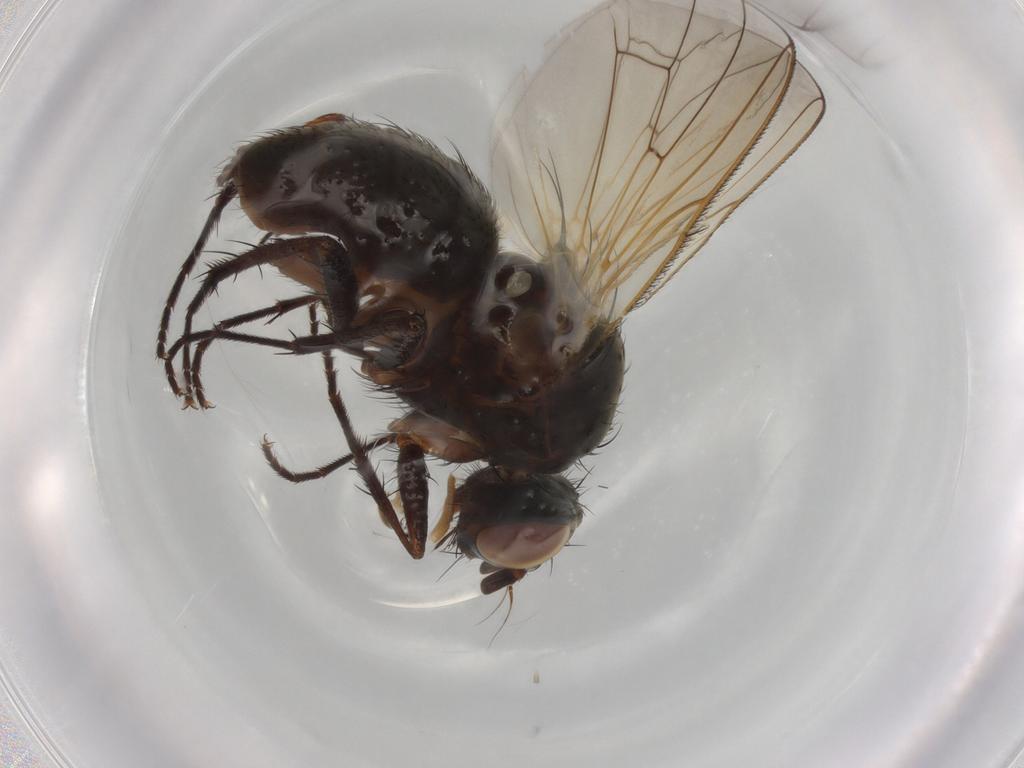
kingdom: Animalia
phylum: Arthropoda
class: Insecta
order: Diptera
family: Anthomyiidae
